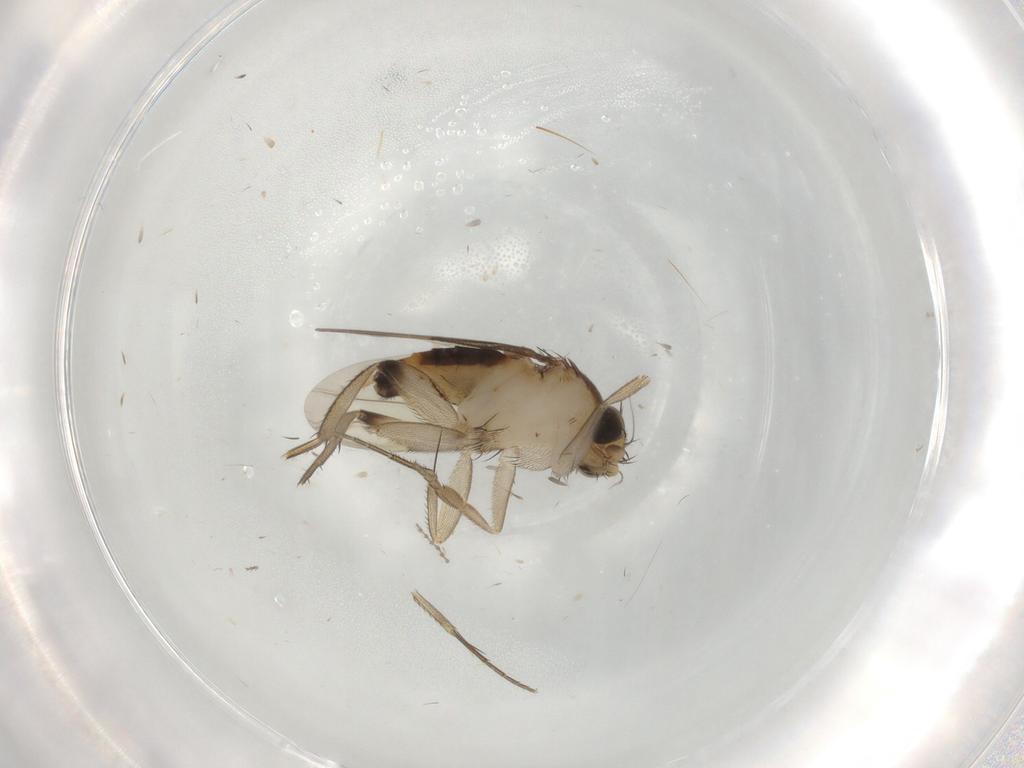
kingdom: Animalia
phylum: Arthropoda
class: Insecta
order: Diptera
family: Phoridae
